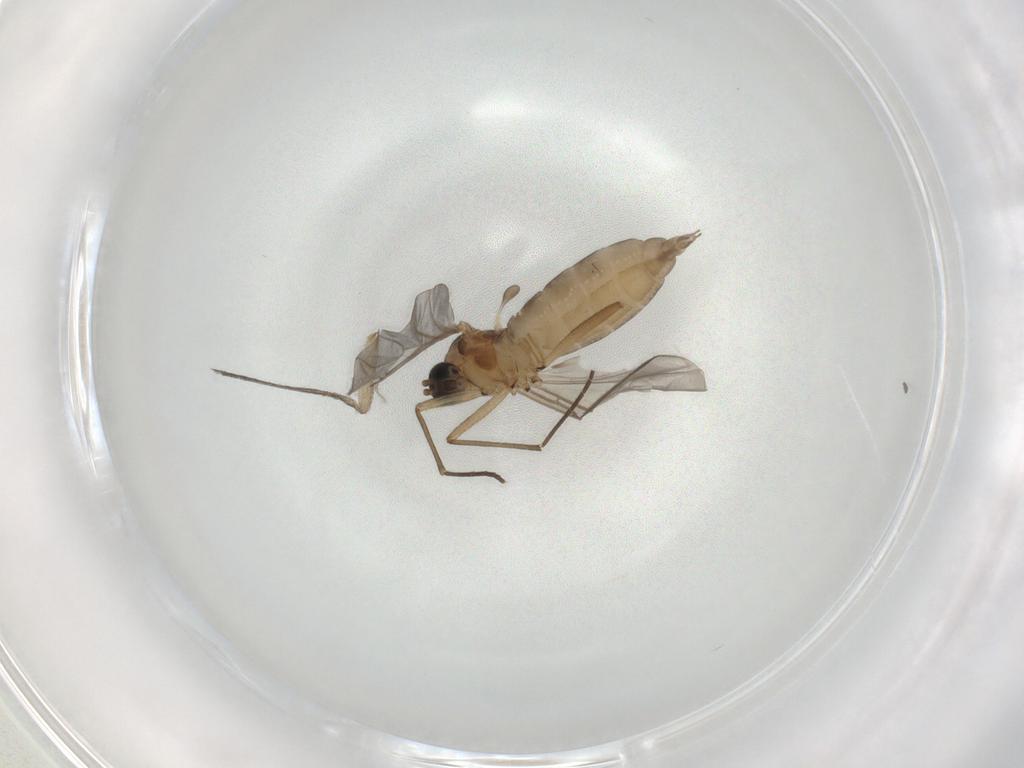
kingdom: Animalia
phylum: Arthropoda
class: Insecta
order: Diptera
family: Mycetophilidae
